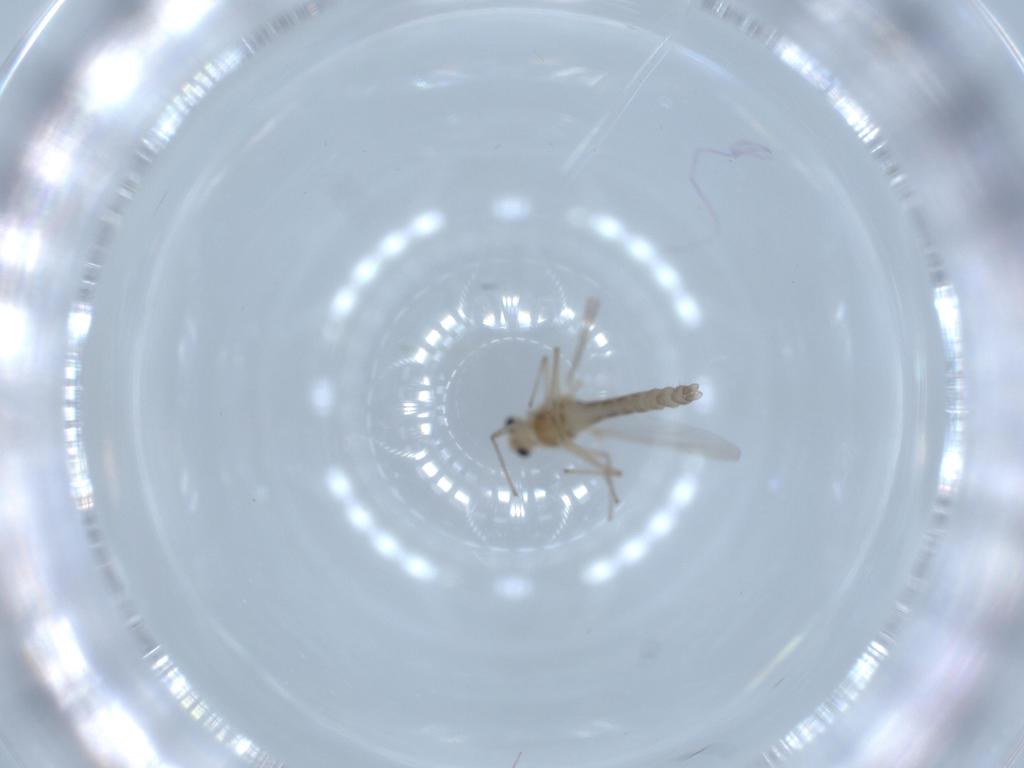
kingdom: Animalia
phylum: Arthropoda
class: Insecta
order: Diptera
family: Chironomidae
